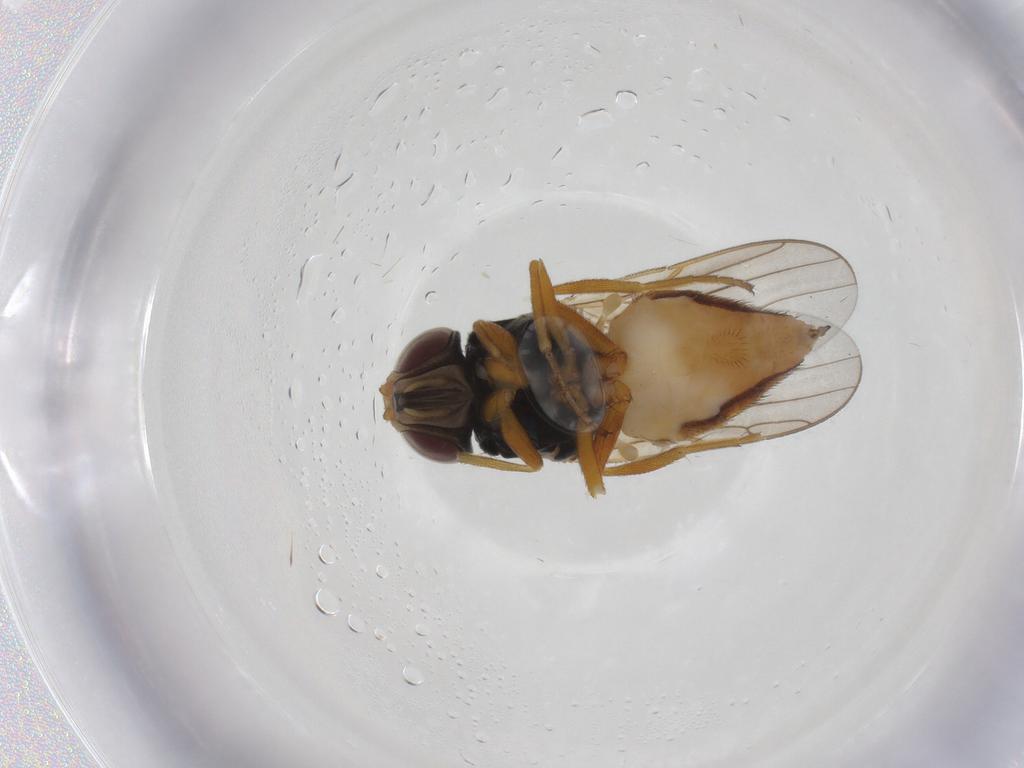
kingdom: Animalia
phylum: Arthropoda
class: Insecta
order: Diptera
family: Chloropidae
